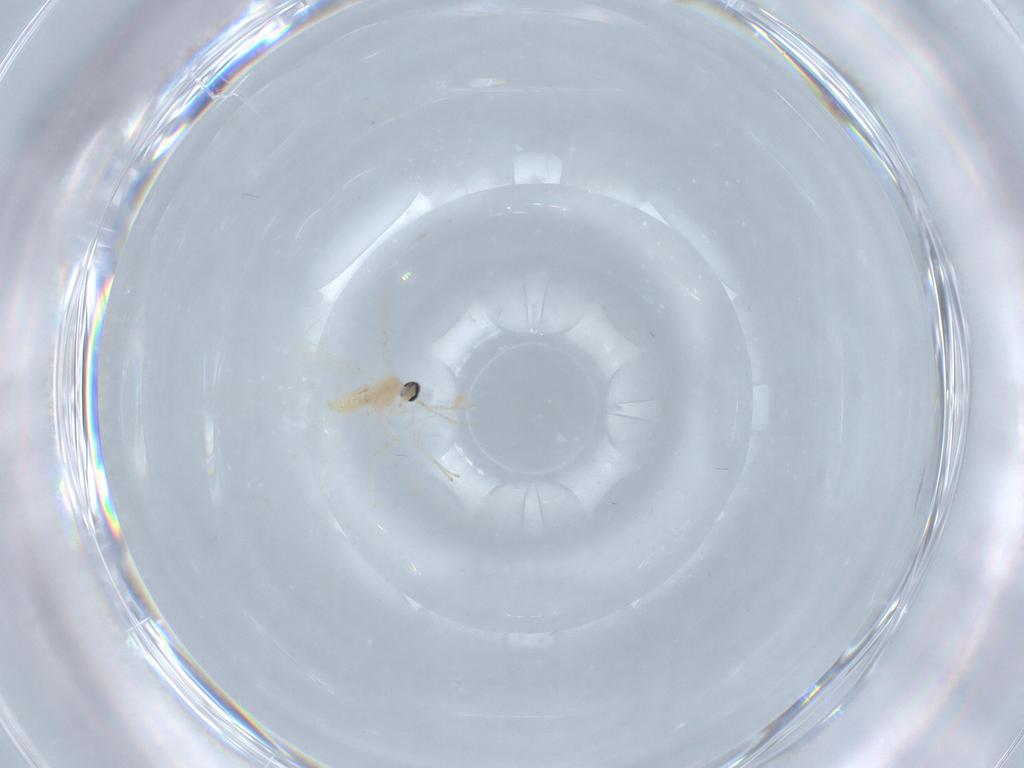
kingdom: Animalia
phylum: Arthropoda
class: Insecta
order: Diptera
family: Cecidomyiidae
